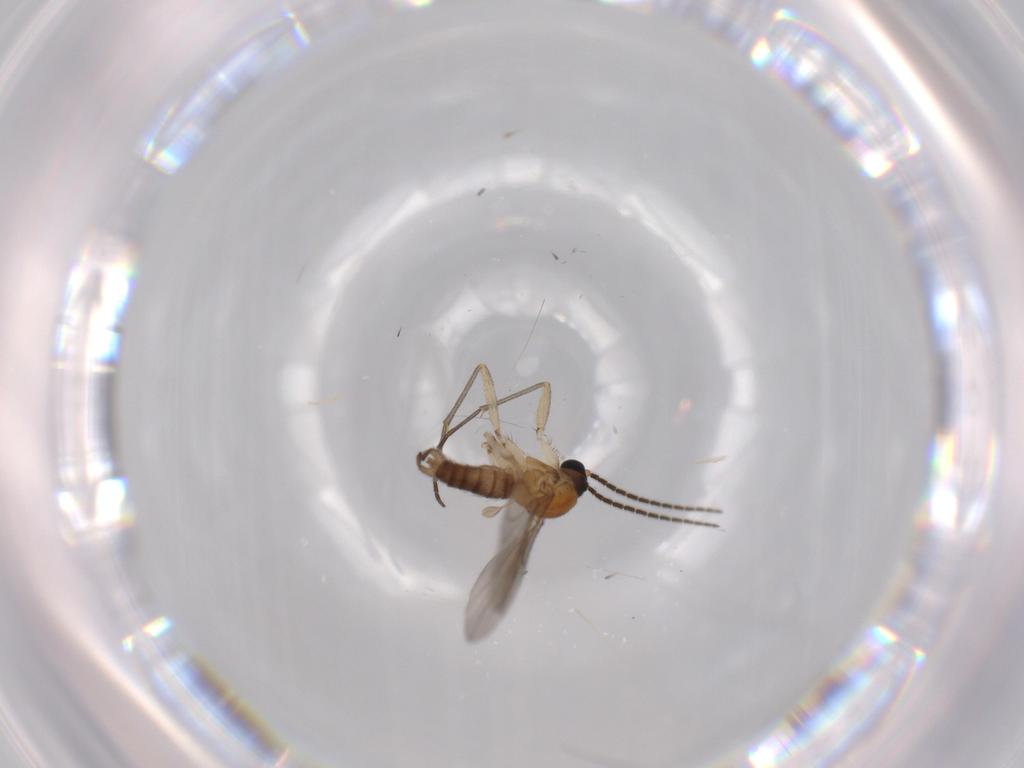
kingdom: Animalia
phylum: Arthropoda
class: Insecta
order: Diptera
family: Sciaridae
